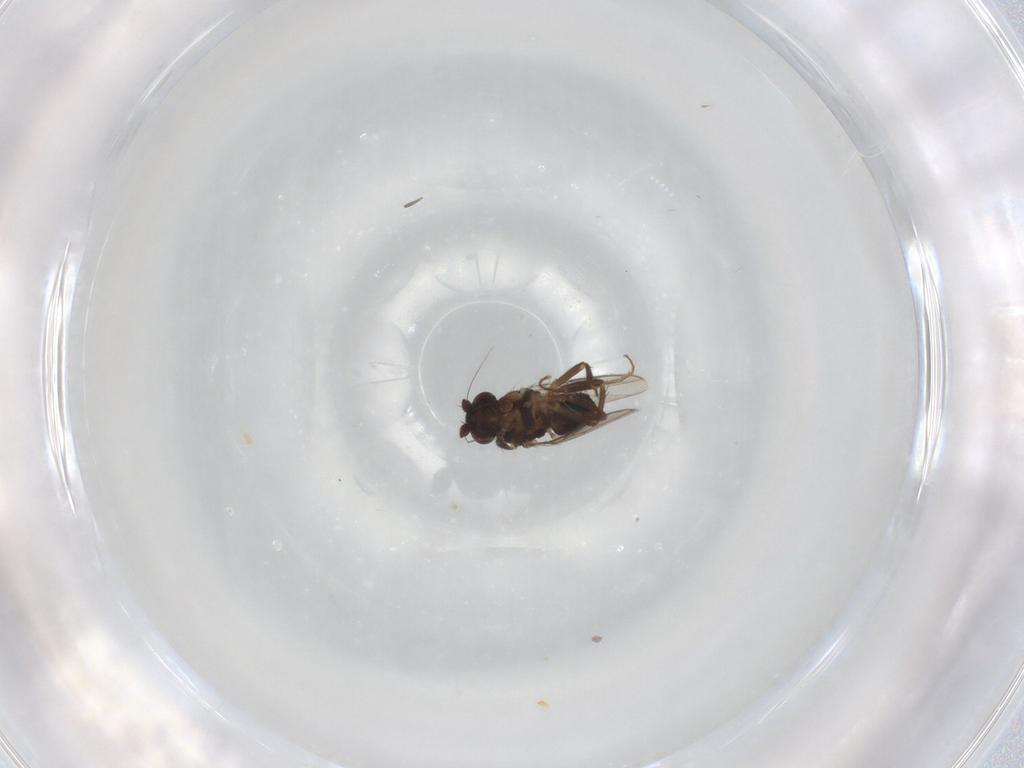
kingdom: Animalia
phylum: Arthropoda
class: Insecta
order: Diptera
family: Sphaeroceridae
